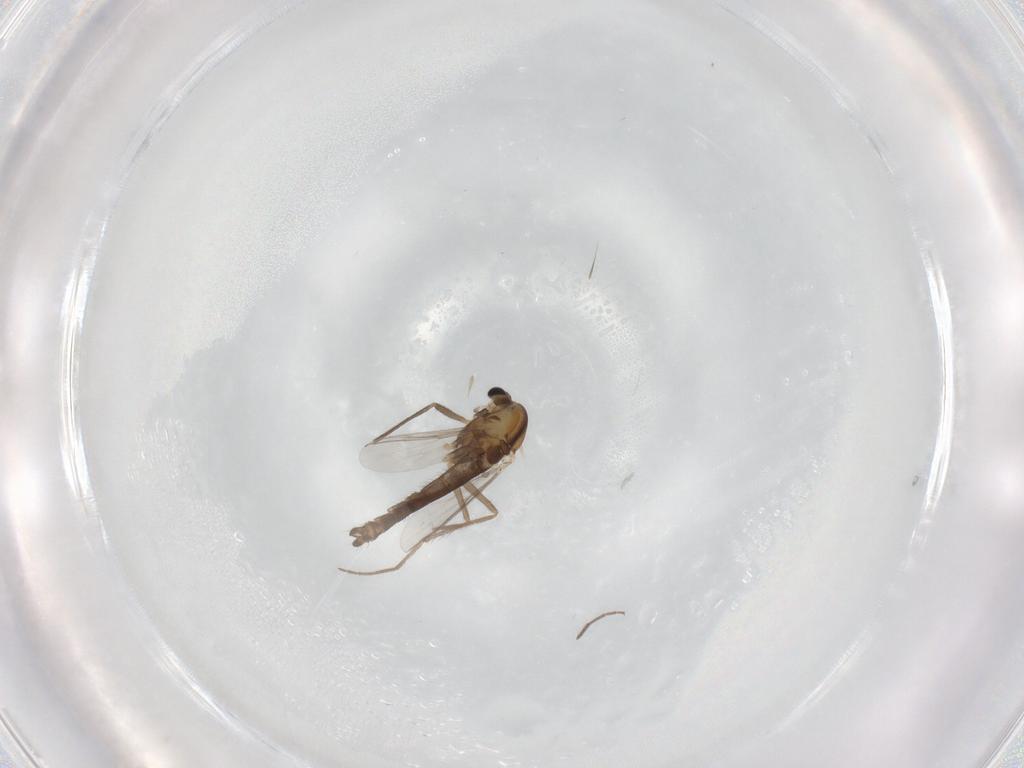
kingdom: Animalia
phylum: Arthropoda
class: Insecta
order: Diptera
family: Chironomidae
